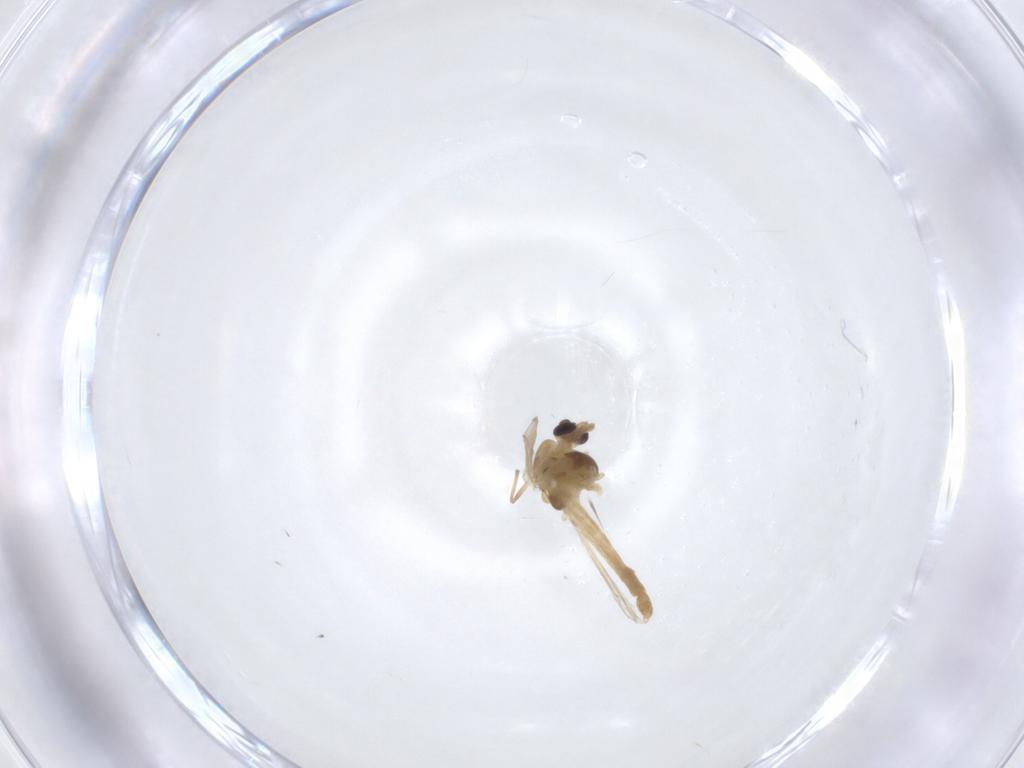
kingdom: Animalia
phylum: Arthropoda
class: Insecta
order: Diptera
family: Chironomidae
